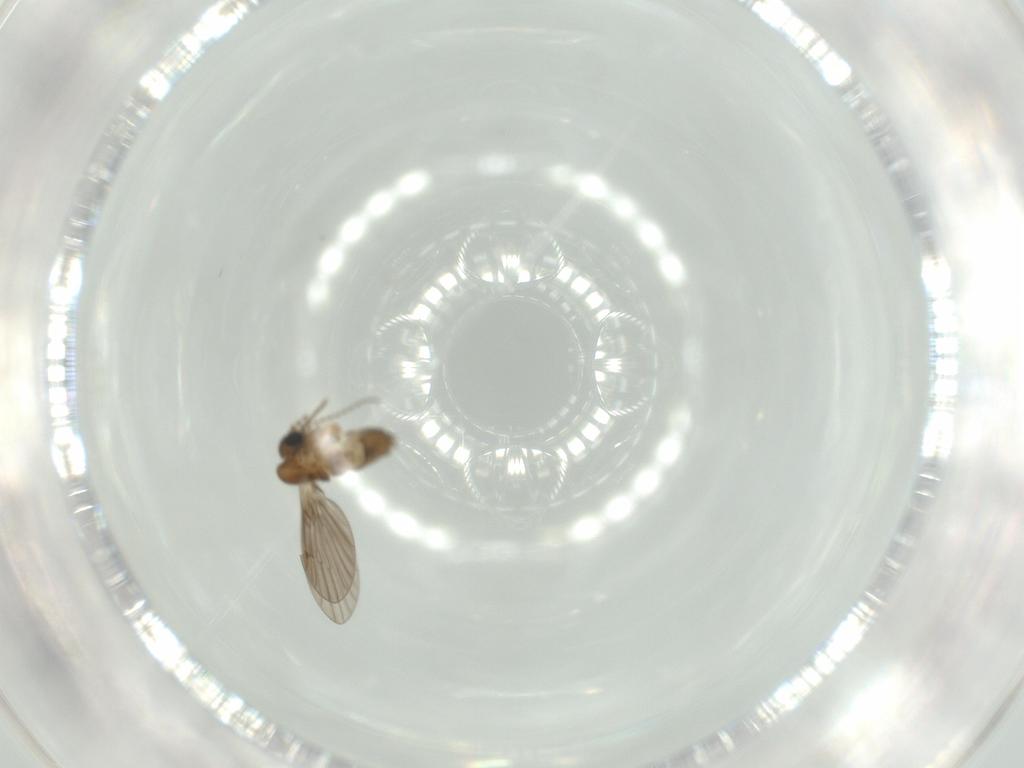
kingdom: Animalia
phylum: Arthropoda
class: Insecta
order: Diptera
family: Psychodidae
